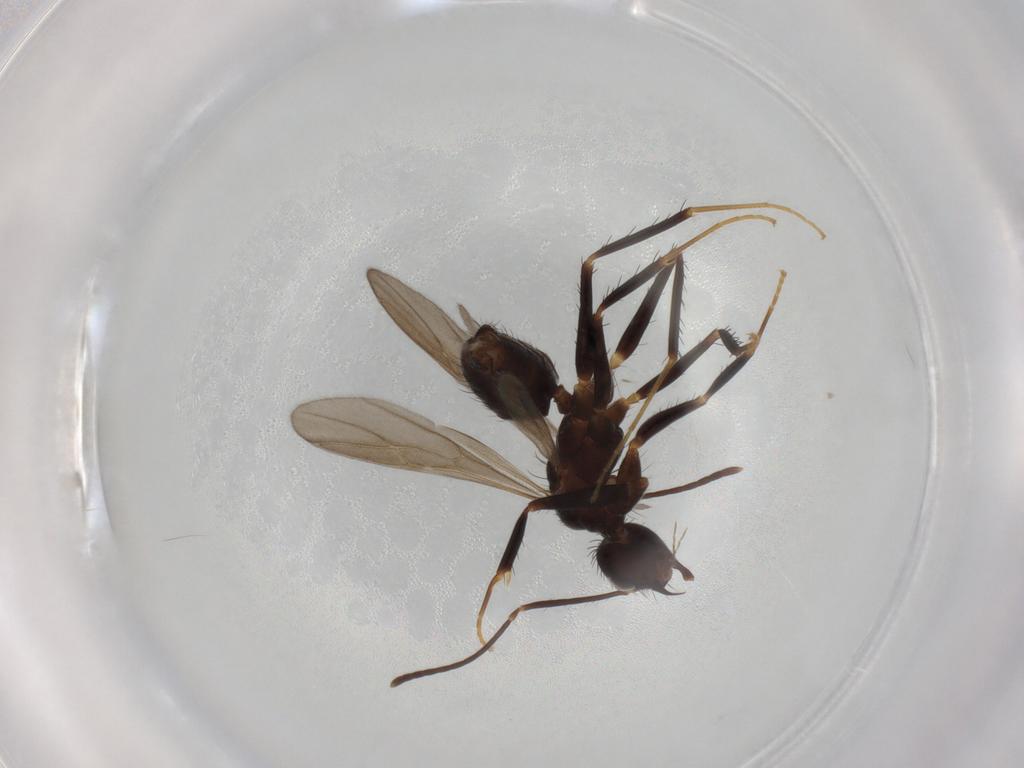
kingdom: Animalia
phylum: Arthropoda
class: Insecta
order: Hymenoptera
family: Formicidae
